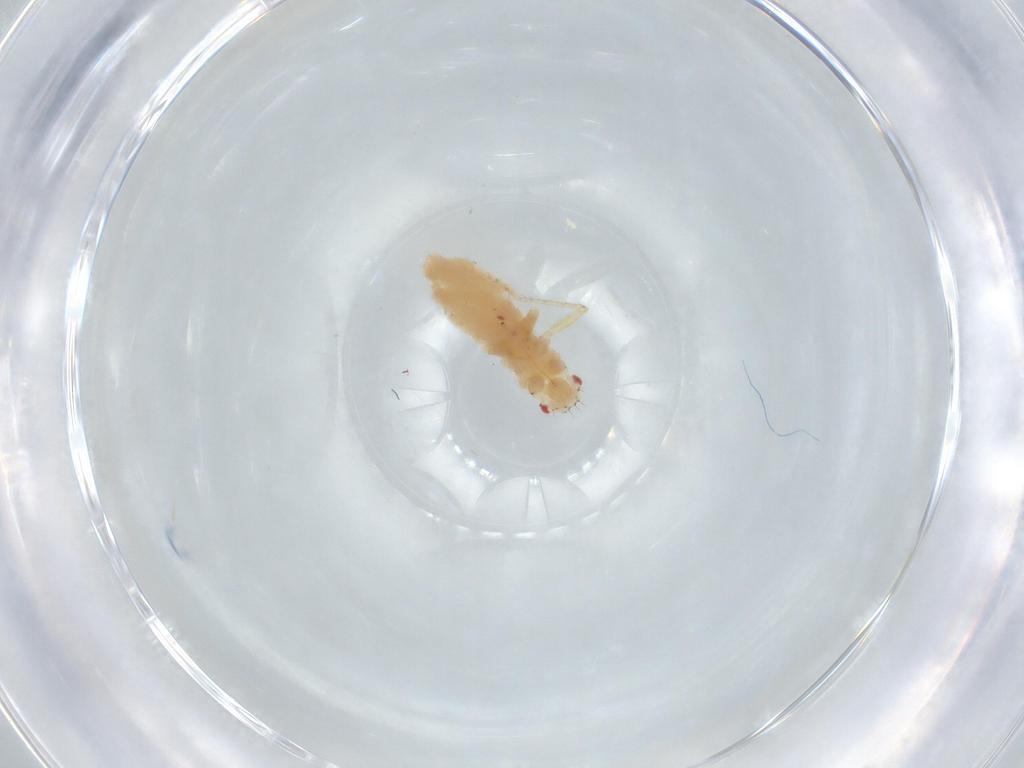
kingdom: Animalia
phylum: Arthropoda
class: Insecta
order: Hemiptera
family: Aphididae
